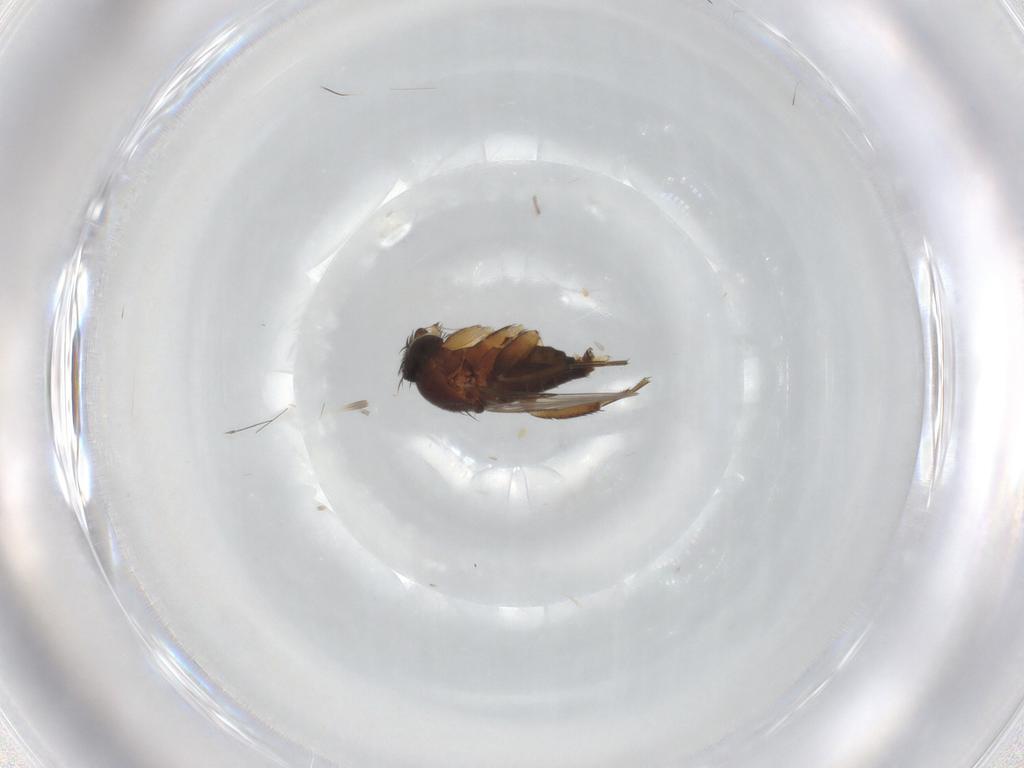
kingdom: Animalia
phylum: Arthropoda
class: Insecta
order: Diptera
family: Phoridae
